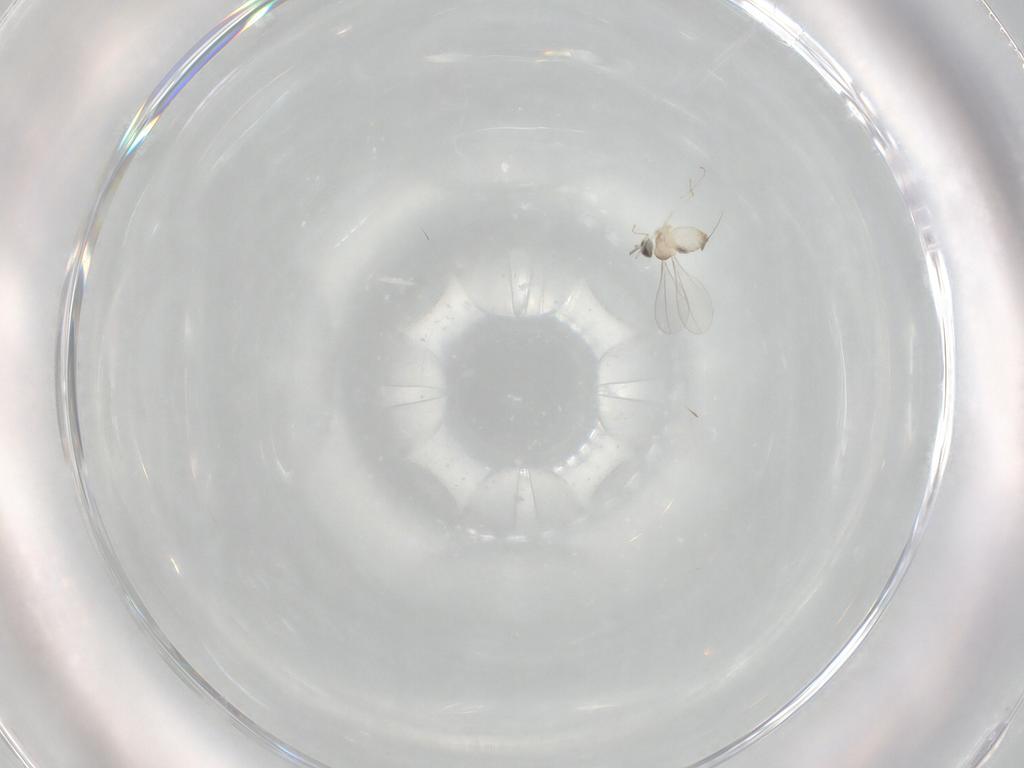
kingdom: Animalia
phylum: Arthropoda
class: Insecta
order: Diptera
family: Cecidomyiidae
